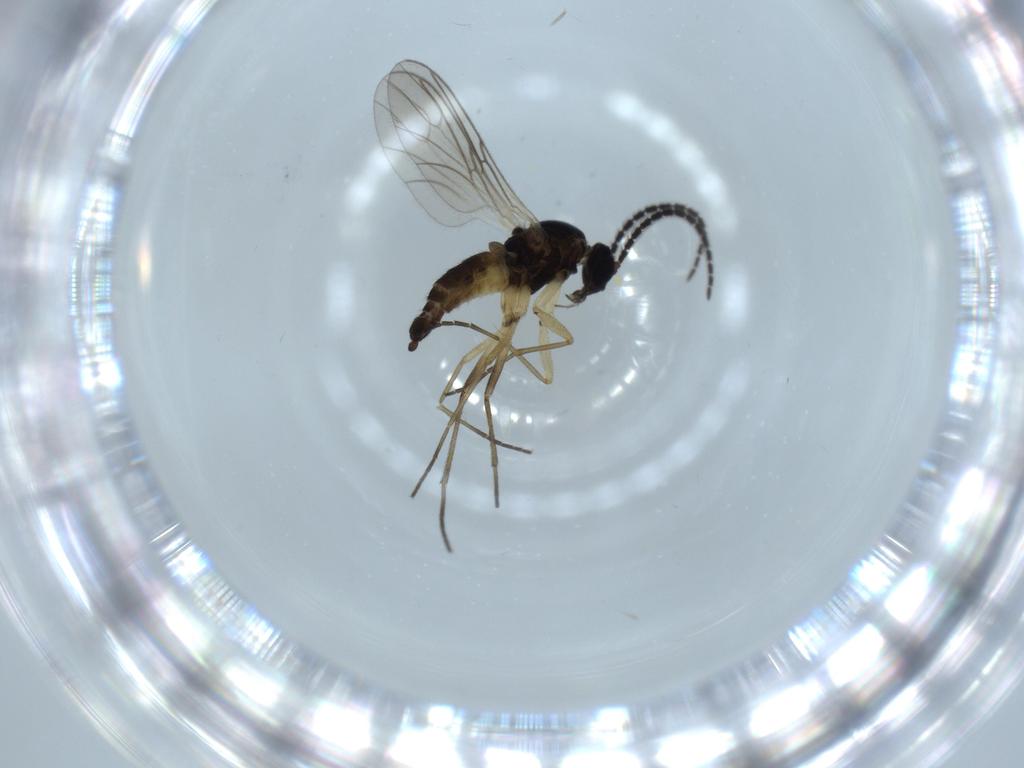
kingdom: Animalia
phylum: Arthropoda
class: Insecta
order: Diptera
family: Sciaridae
